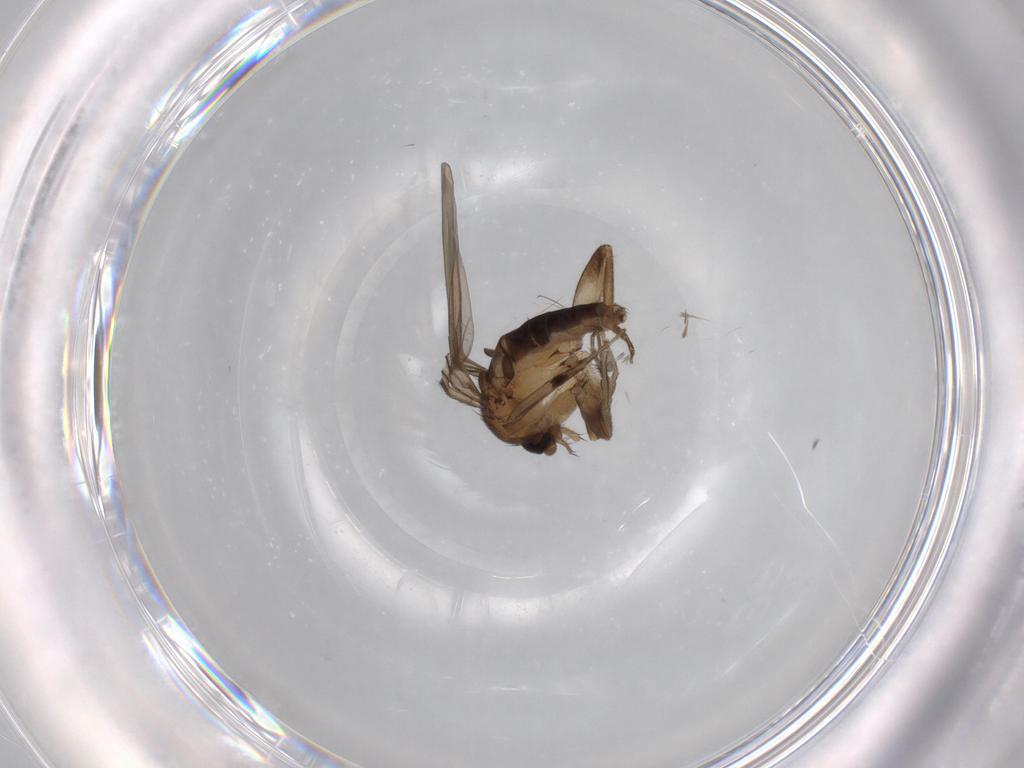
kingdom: Animalia
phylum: Arthropoda
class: Insecta
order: Diptera
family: Phoridae
